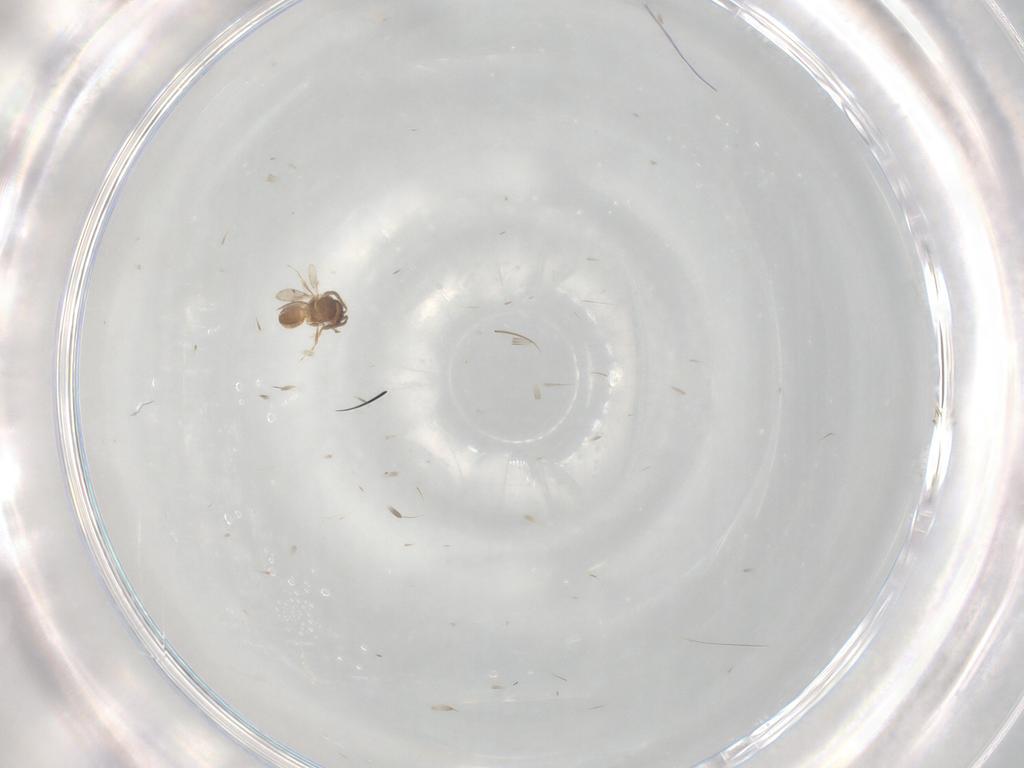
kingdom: Animalia
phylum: Arthropoda
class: Insecta
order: Hymenoptera
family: Scelionidae
